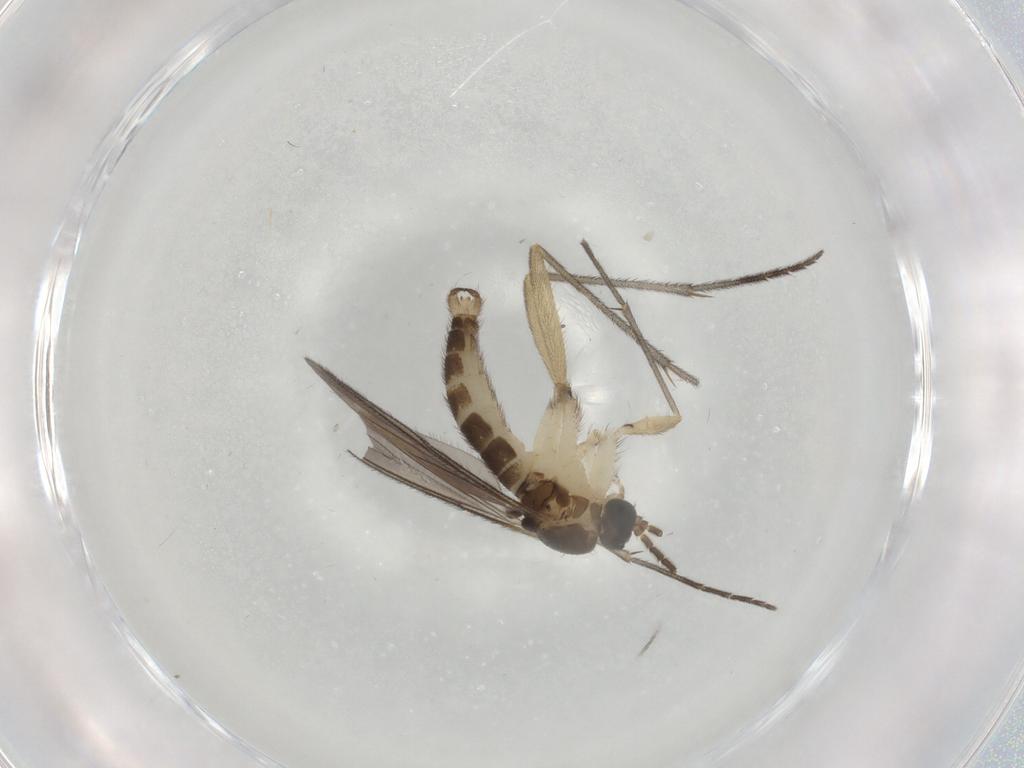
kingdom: Animalia
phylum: Arthropoda
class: Insecta
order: Diptera
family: Sciaridae
